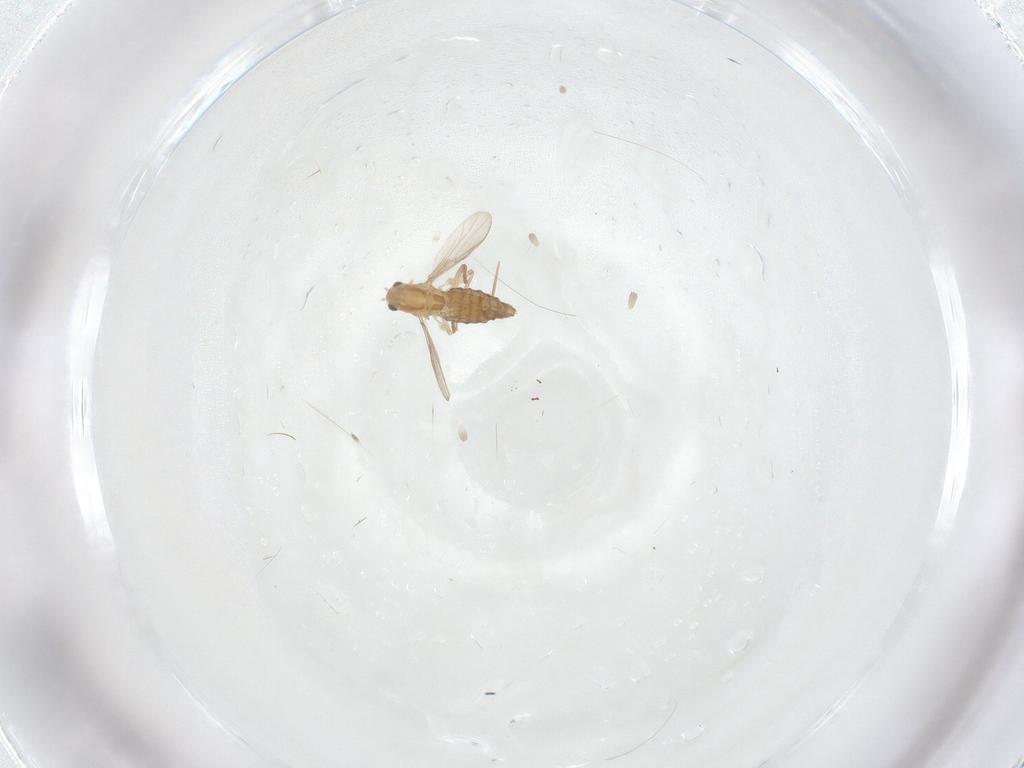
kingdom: Animalia
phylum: Arthropoda
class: Insecta
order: Diptera
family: Chironomidae
